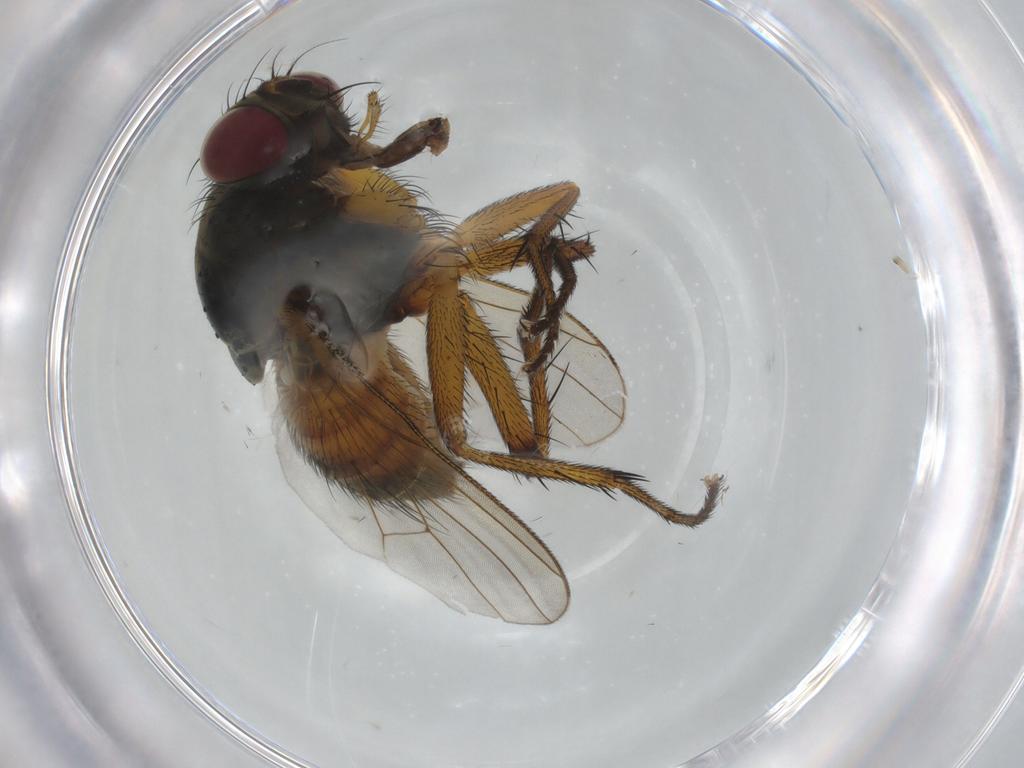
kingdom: Animalia
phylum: Arthropoda
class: Insecta
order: Diptera
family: Muscidae
